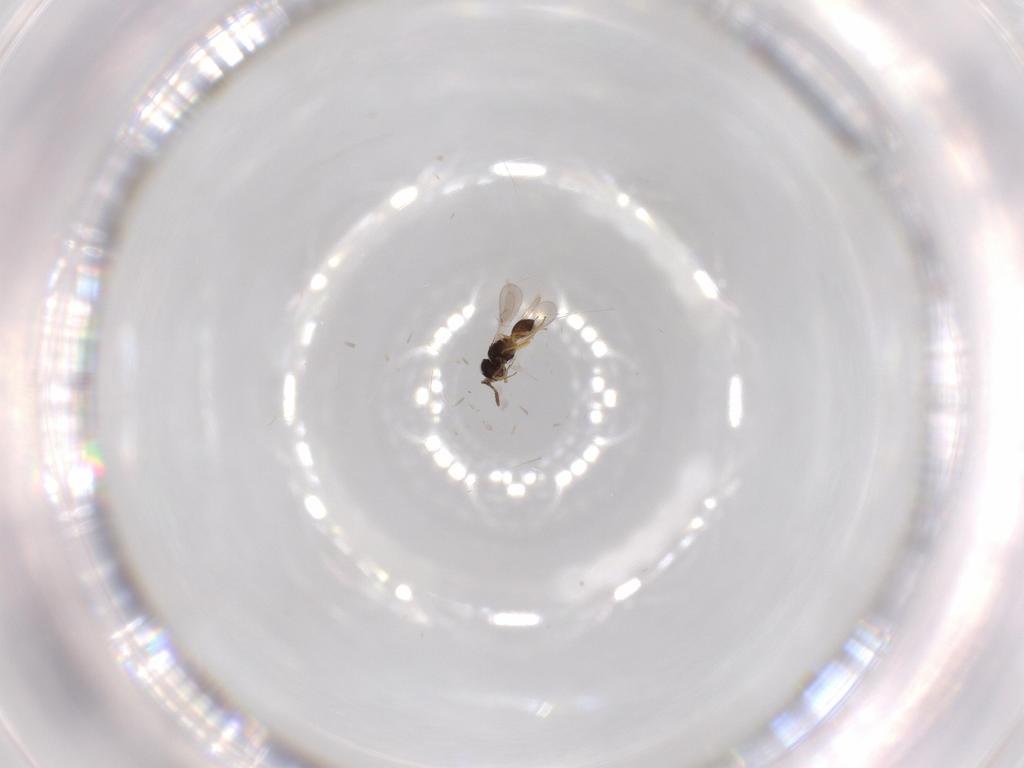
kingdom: Animalia
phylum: Arthropoda
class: Insecta
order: Hymenoptera
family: Scelionidae
